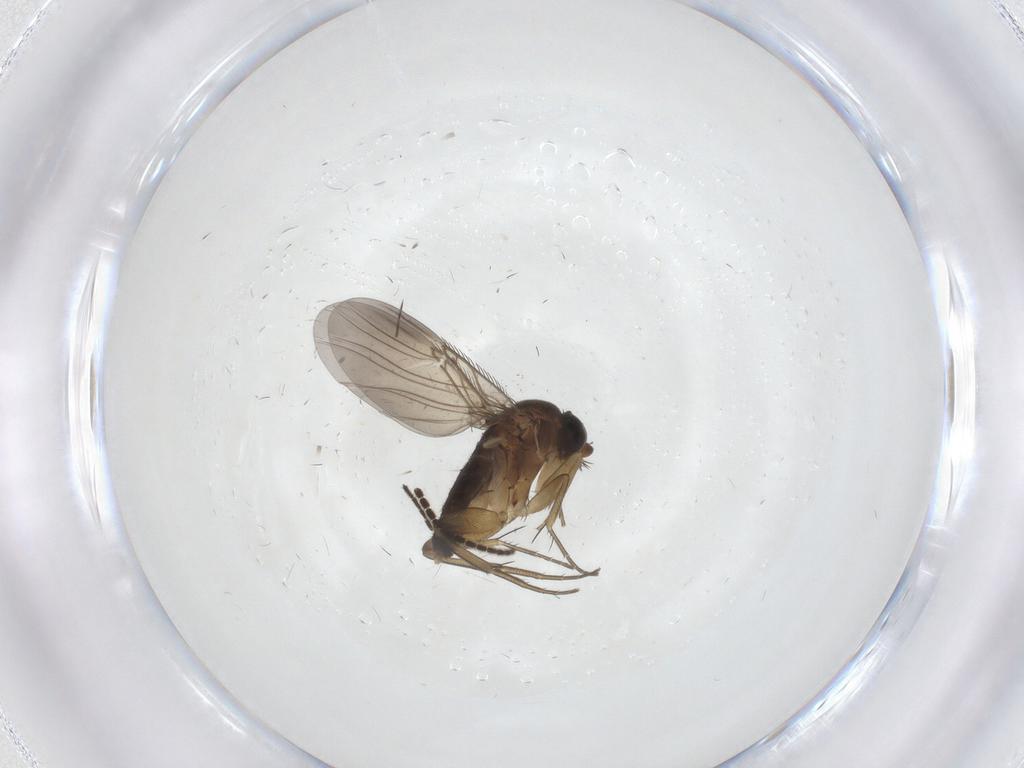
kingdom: Animalia
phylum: Arthropoda
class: Insecta
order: Diptera
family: Phoridae
